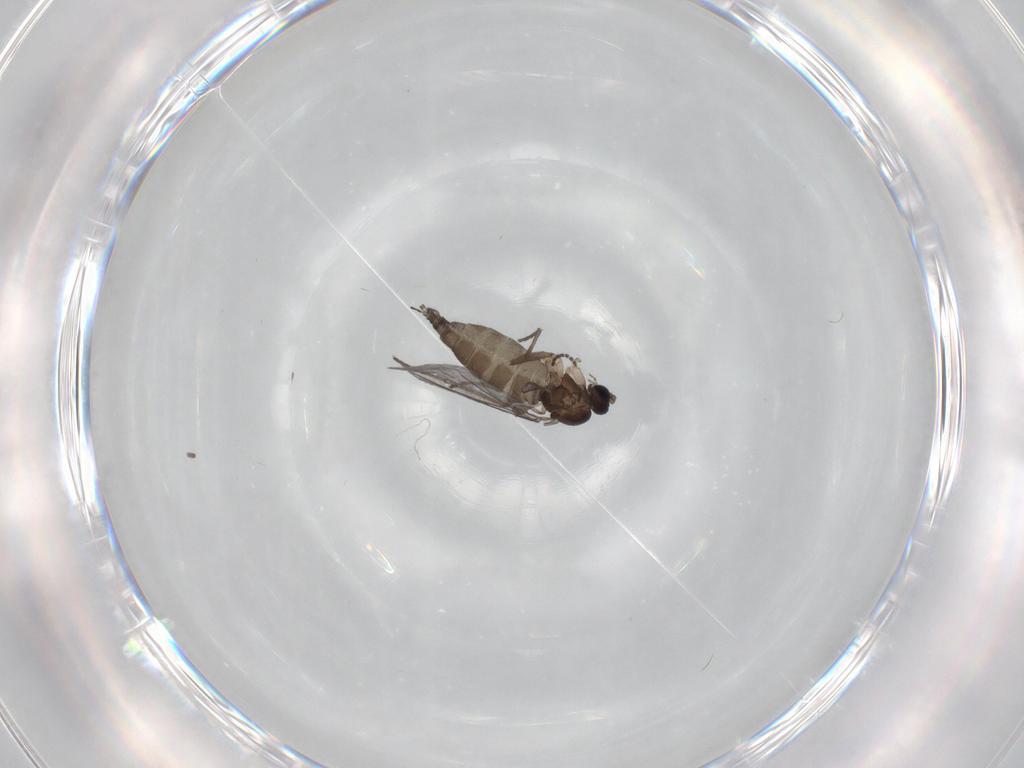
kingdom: Animalia
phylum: Arthropoda
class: Insecta
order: Diptera
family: Sciaridae
